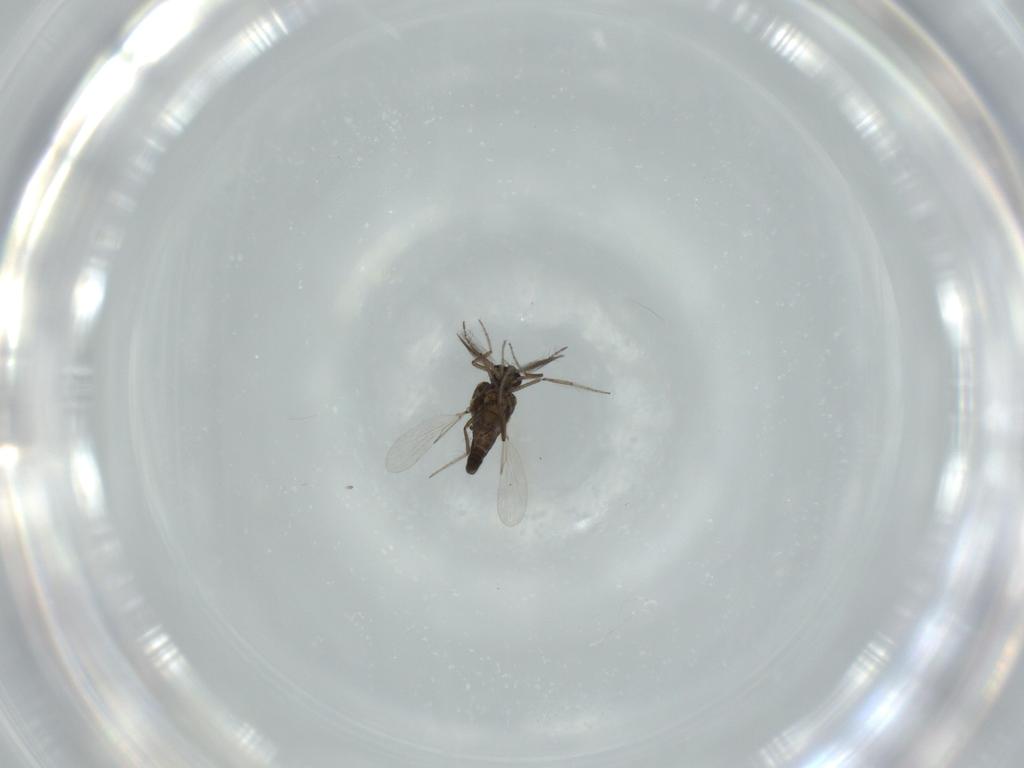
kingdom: Animalia
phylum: Arthropoda
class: Insecta
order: Diptera
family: Ceratopogonidae
